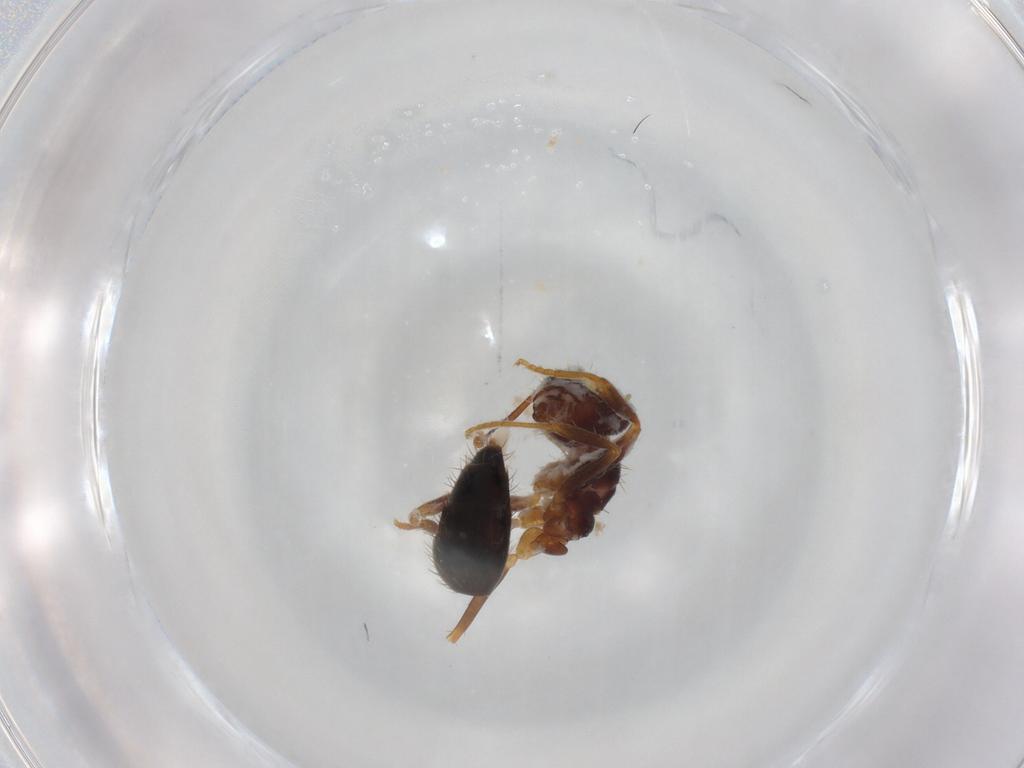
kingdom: Animalia
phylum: Arthropoda
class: Insecta
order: Hymenoptera
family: Formicidae
